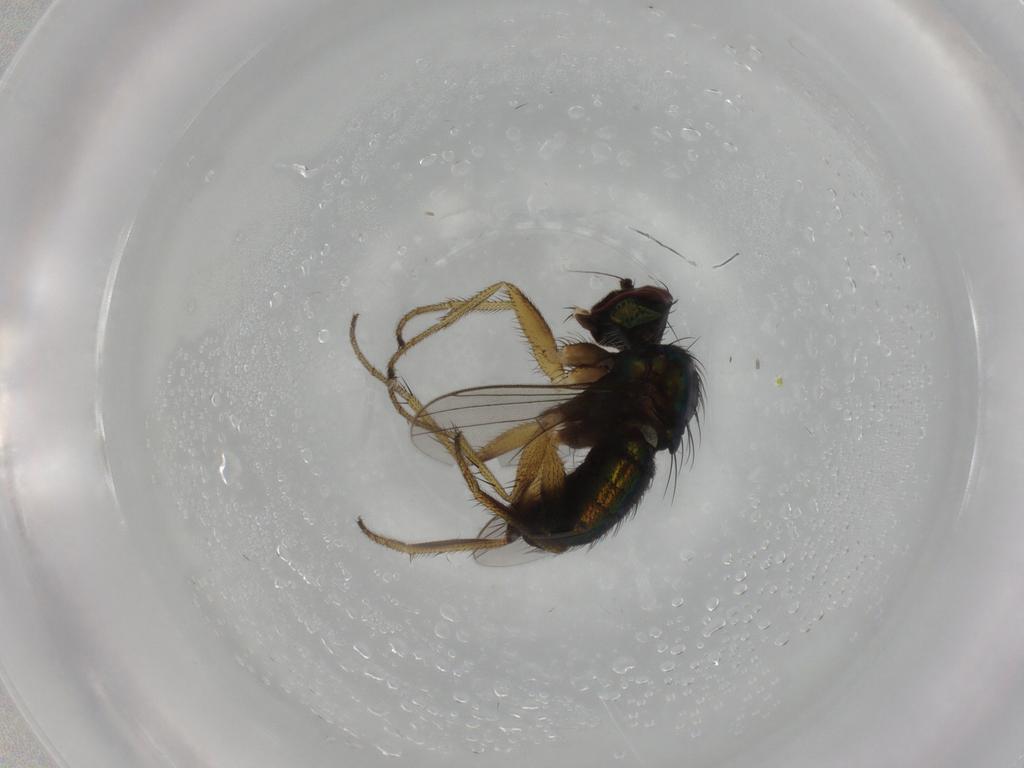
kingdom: Animalia
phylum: Arthropoda
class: Insecta
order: Diptera
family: Dolichopodidae
